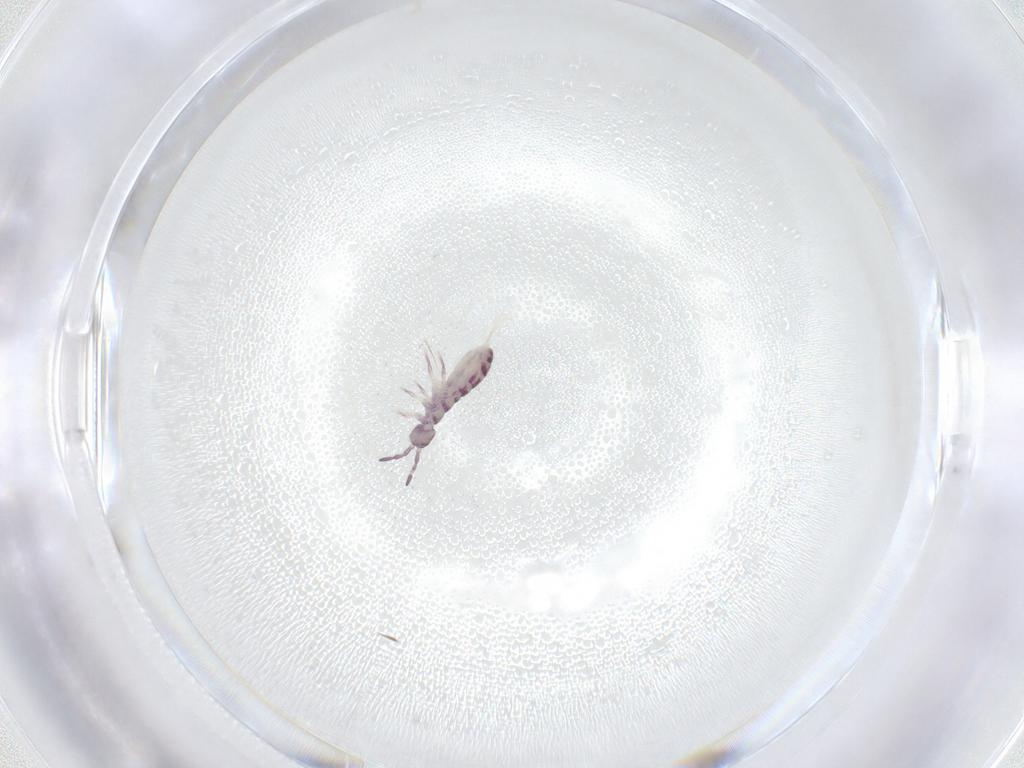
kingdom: Animalia
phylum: Arthropoda
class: Collembola
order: Entomobryomorpha
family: Isotomidae
